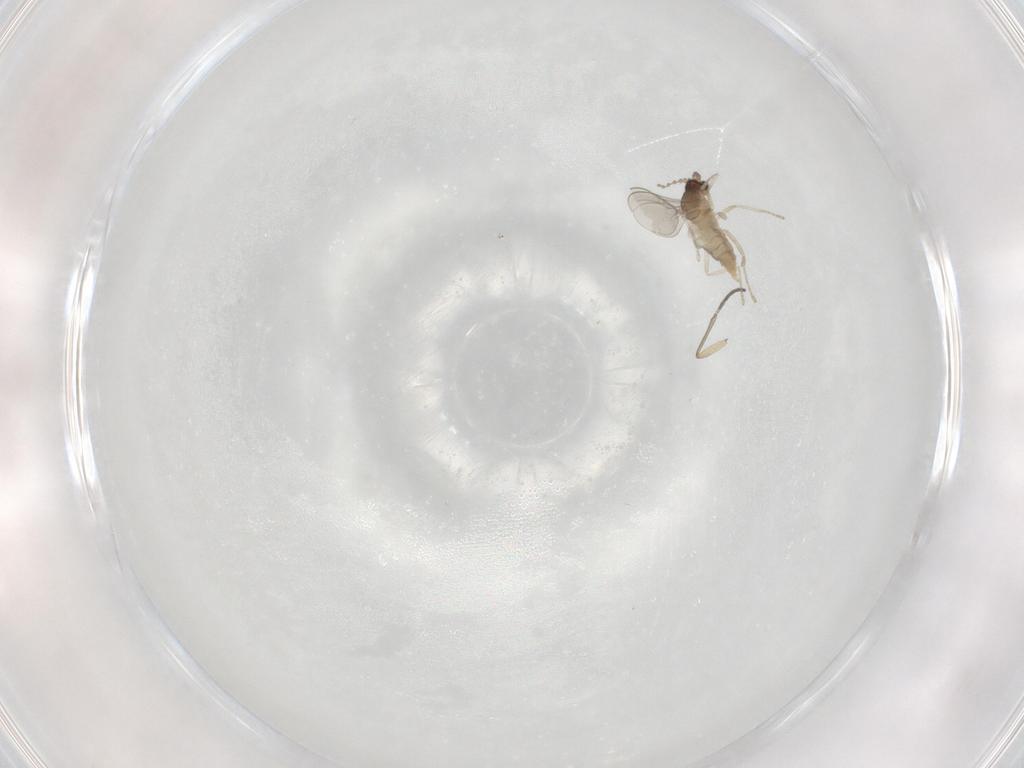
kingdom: Animalia
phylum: Arthropoda
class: Insecta
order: Diptera
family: Sciaridae
